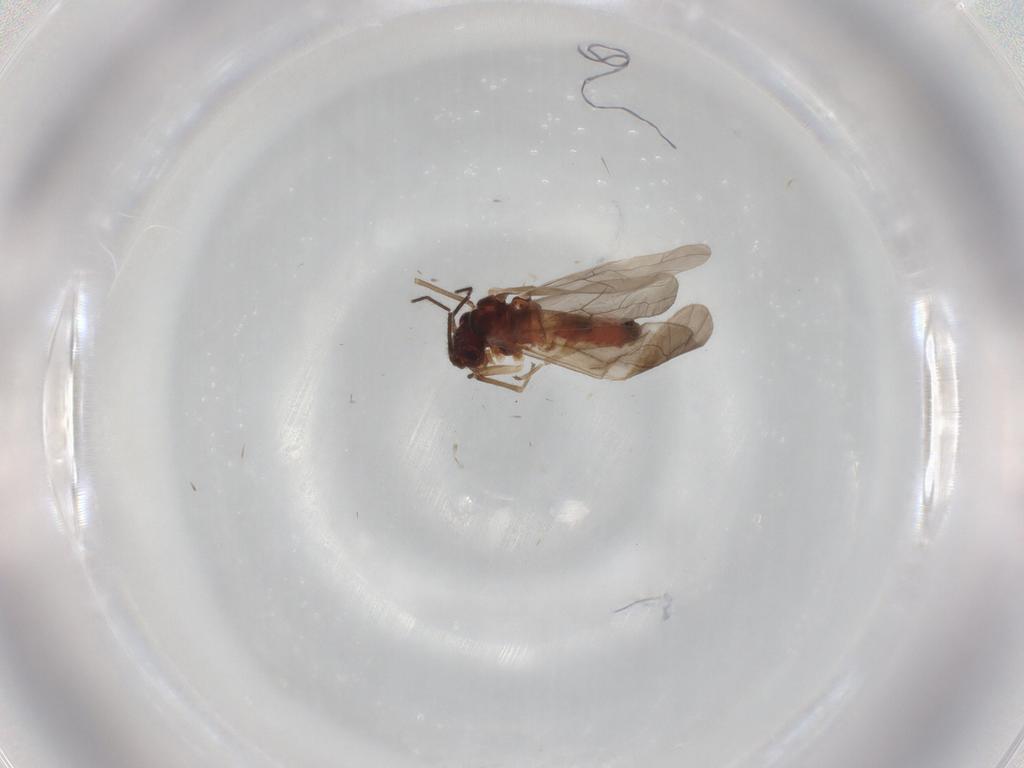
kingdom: Animalia
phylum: Arthropoda
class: Insecta
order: Psocodea
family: Caeciliusidae
